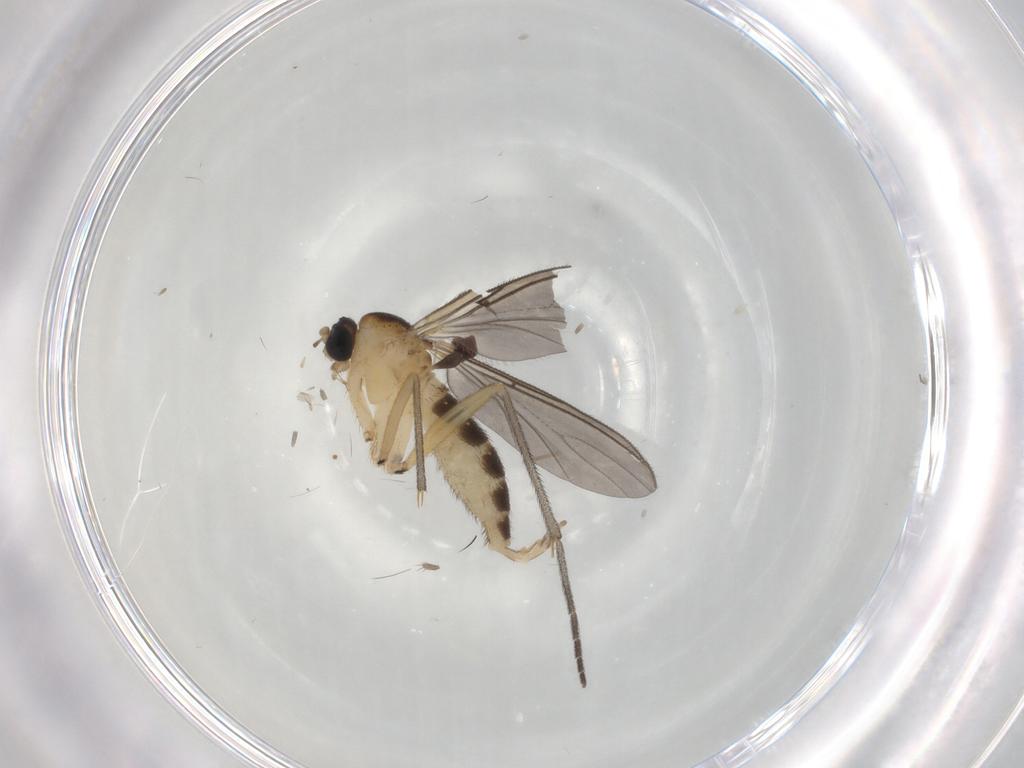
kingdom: Animalia
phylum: Arthropoda
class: Insecta
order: Diptera
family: Sciaridae
